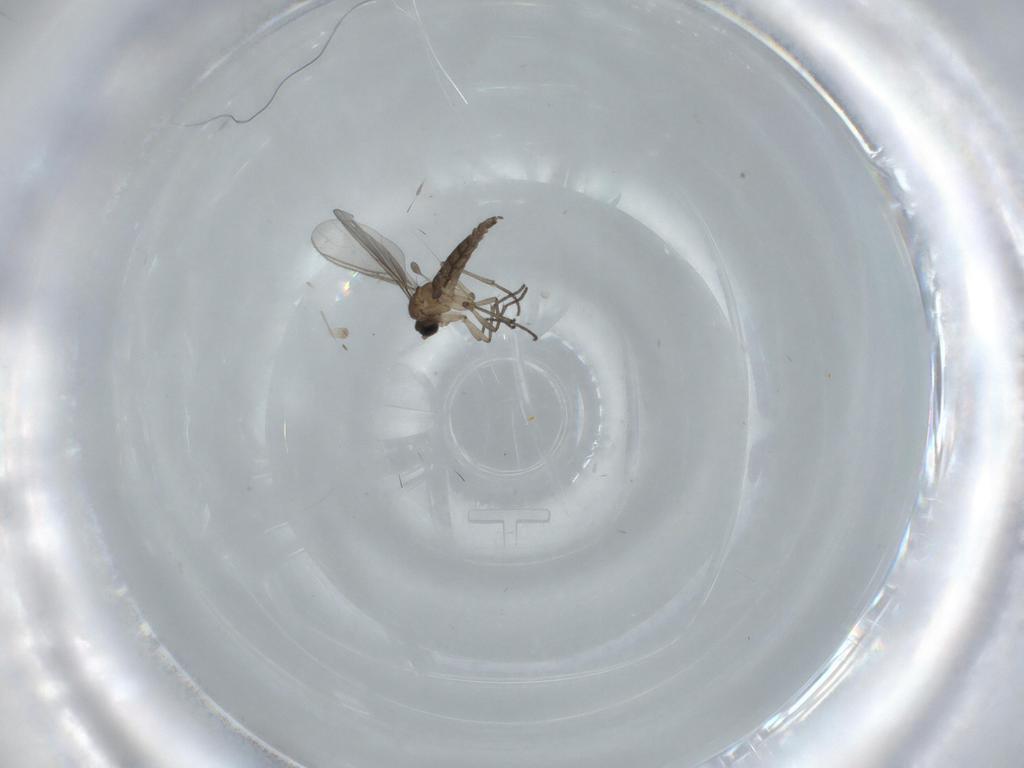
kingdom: Animalia
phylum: Arthropoda
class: Insecta
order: Diptera
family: Sciaridae
